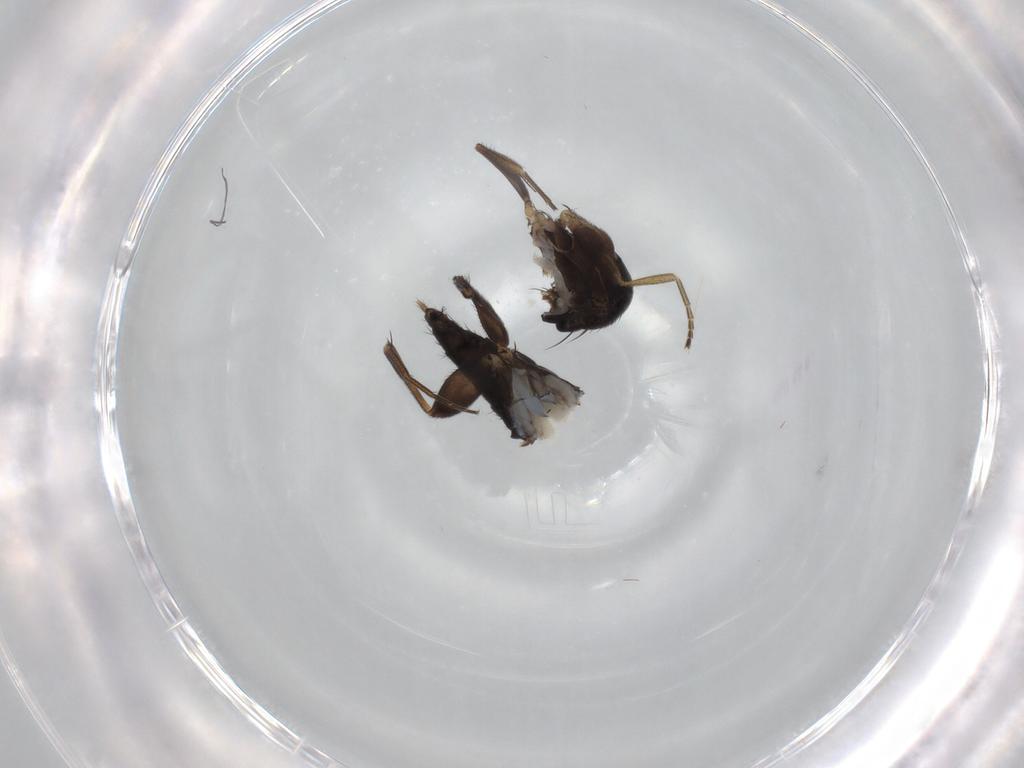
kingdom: Animalia
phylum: Arthropoda
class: Insecta
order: Diptera
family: Phoridae
